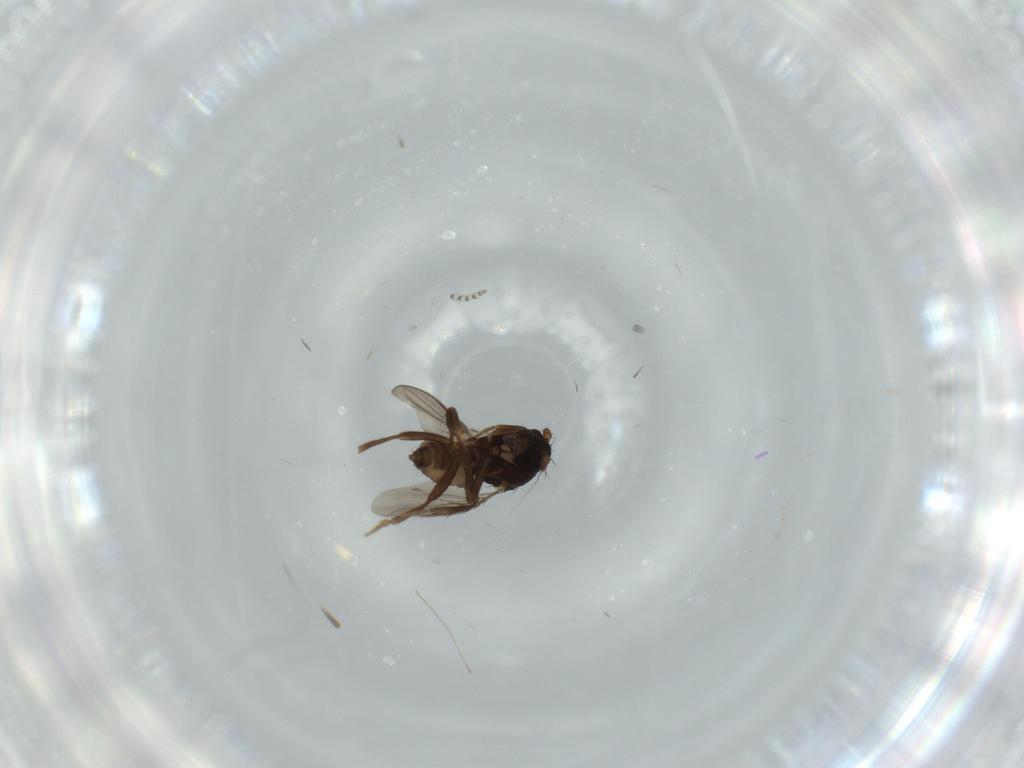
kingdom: Animalia
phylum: Arthropoda
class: Insecta
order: Diptera
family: Sphaeroceridae
